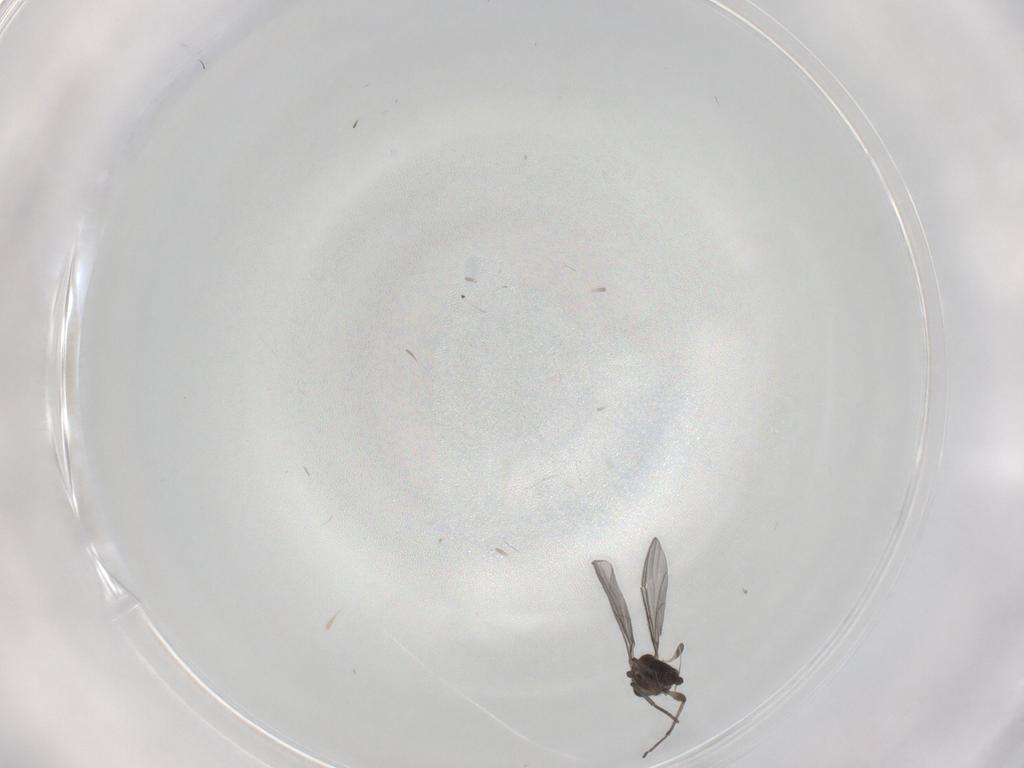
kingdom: Animalia
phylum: Arthropoda
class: Insecta
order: Diptera
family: Sciaridae
